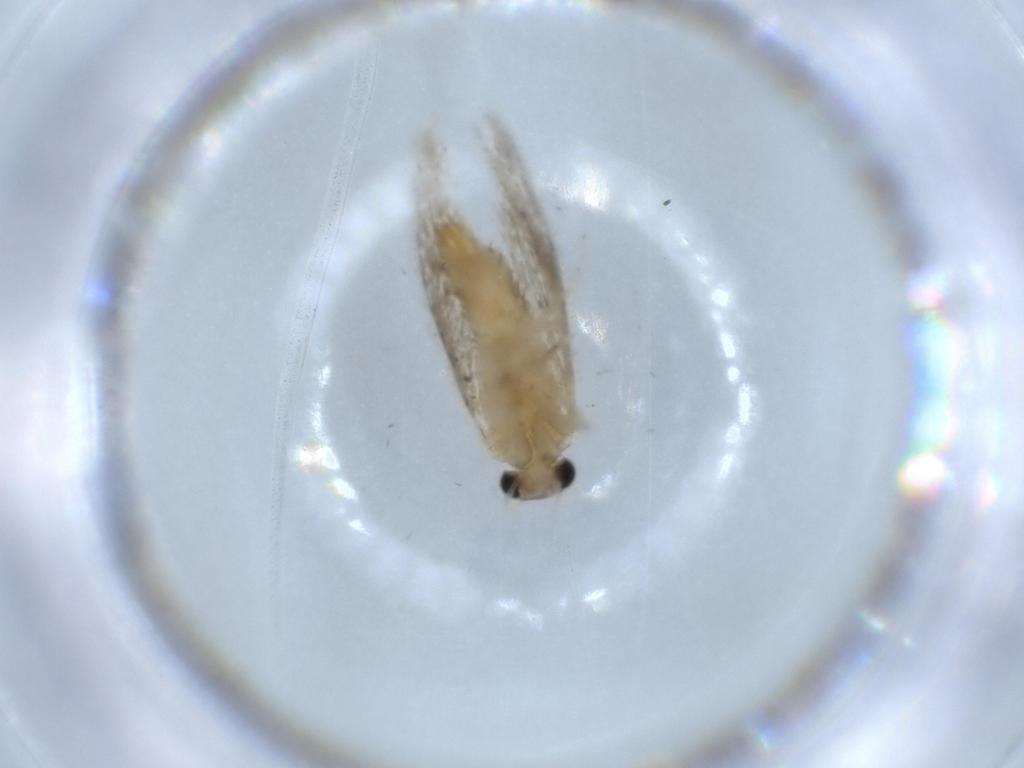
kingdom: Animalia
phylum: Arthropoda
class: Insecta
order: Lepidoptera
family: Tineidae
